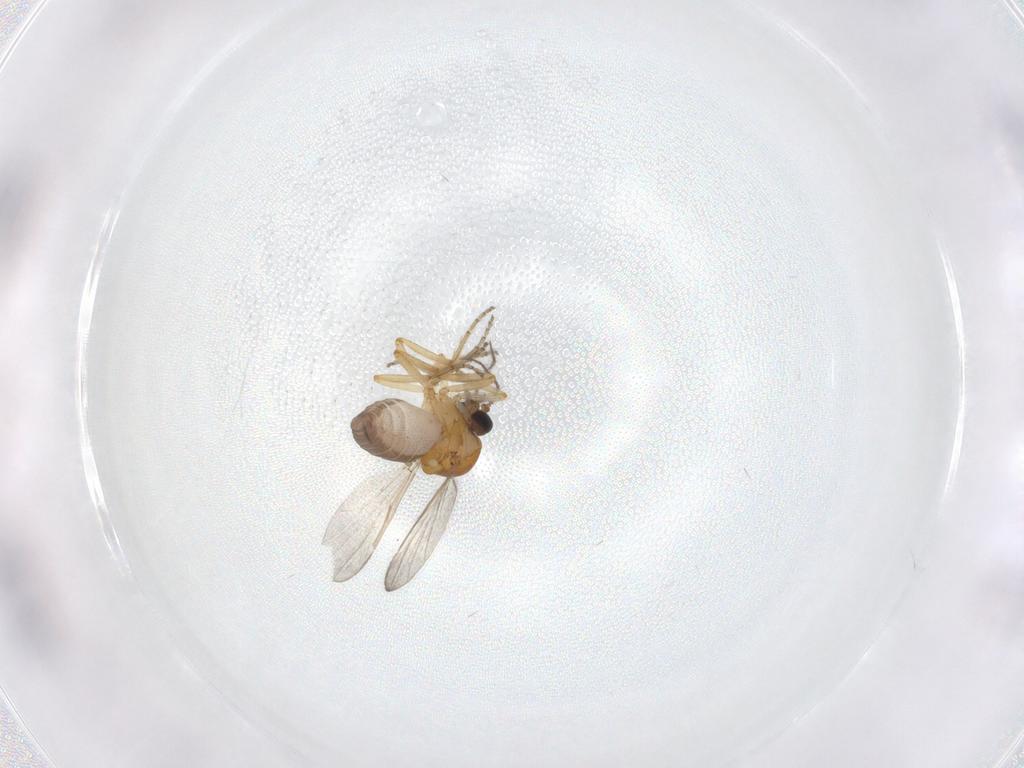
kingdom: Animalia
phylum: Arthropoda
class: Insecta
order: Diptera
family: Ceratopogonidae
